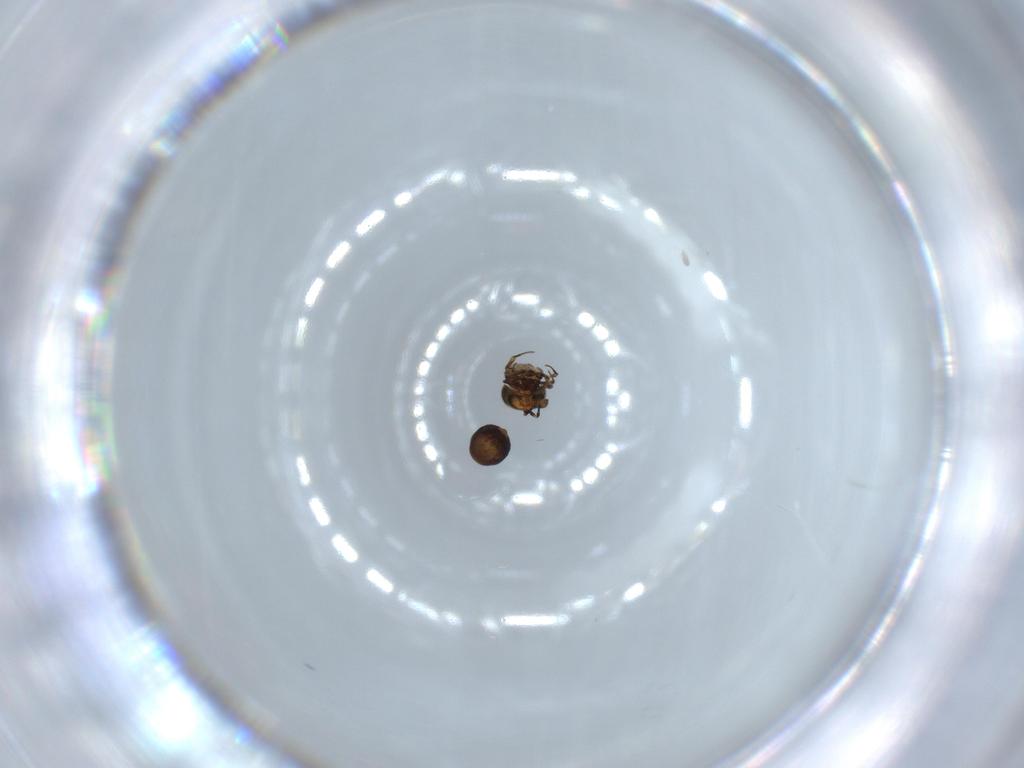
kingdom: Animalia
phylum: Arthropoda
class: Insecta
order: Hymenoptera
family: Scelionidae
